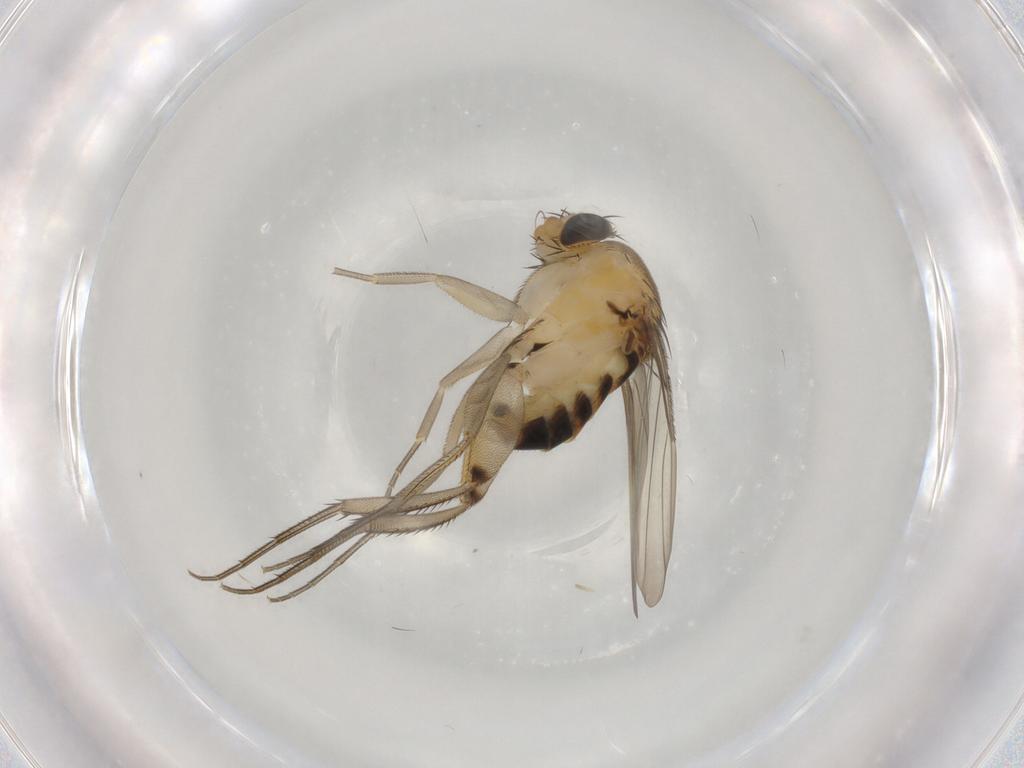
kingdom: Animalia
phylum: Arthropoda
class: Insecta
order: Diptera
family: Phoridae
